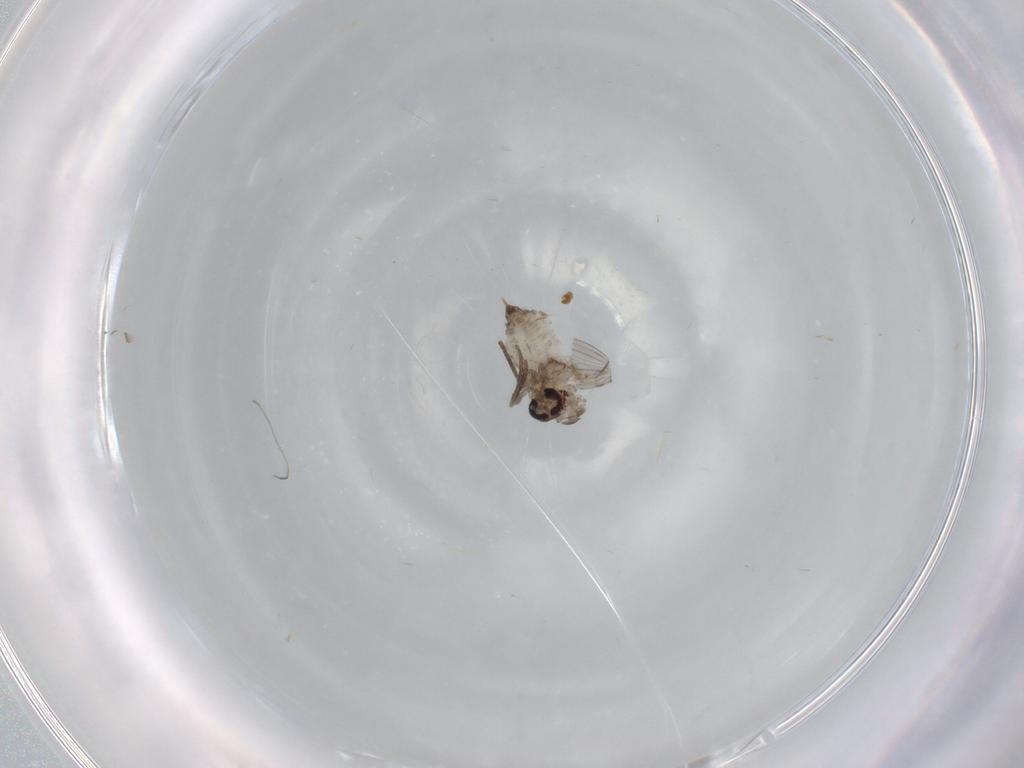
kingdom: Animalia
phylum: Arthropoda
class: Insecta
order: Diptera
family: Psychodidae
